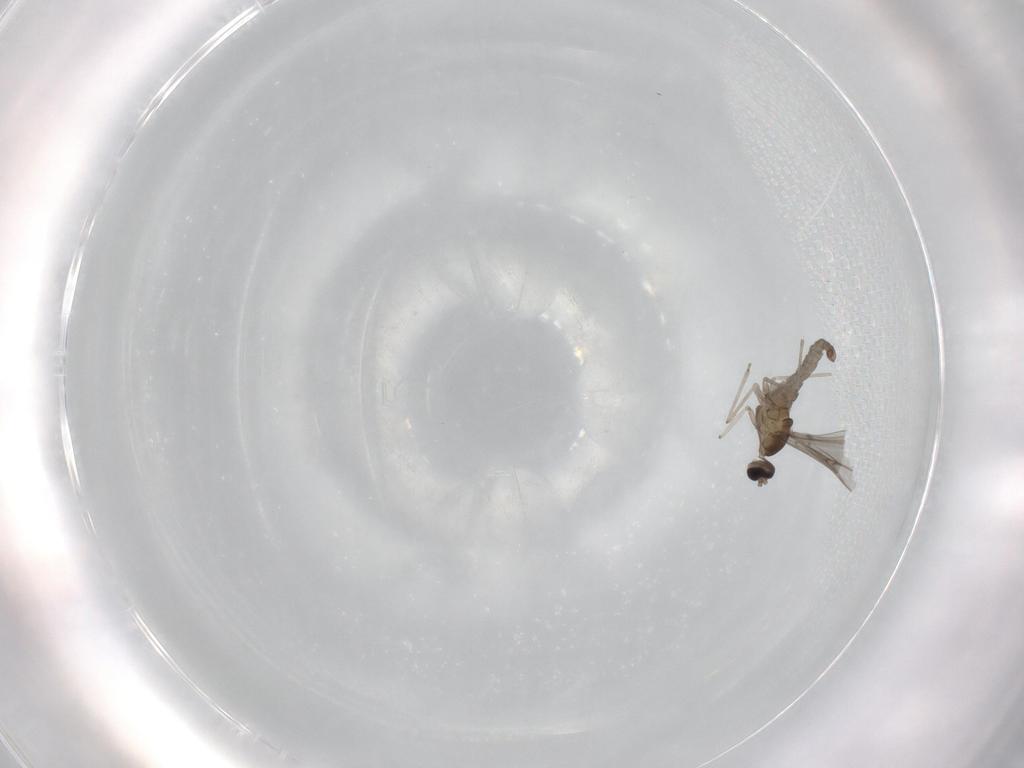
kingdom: Animalia
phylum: Arthropoda
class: Insecta
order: Diptera
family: Cecidomyiidae
